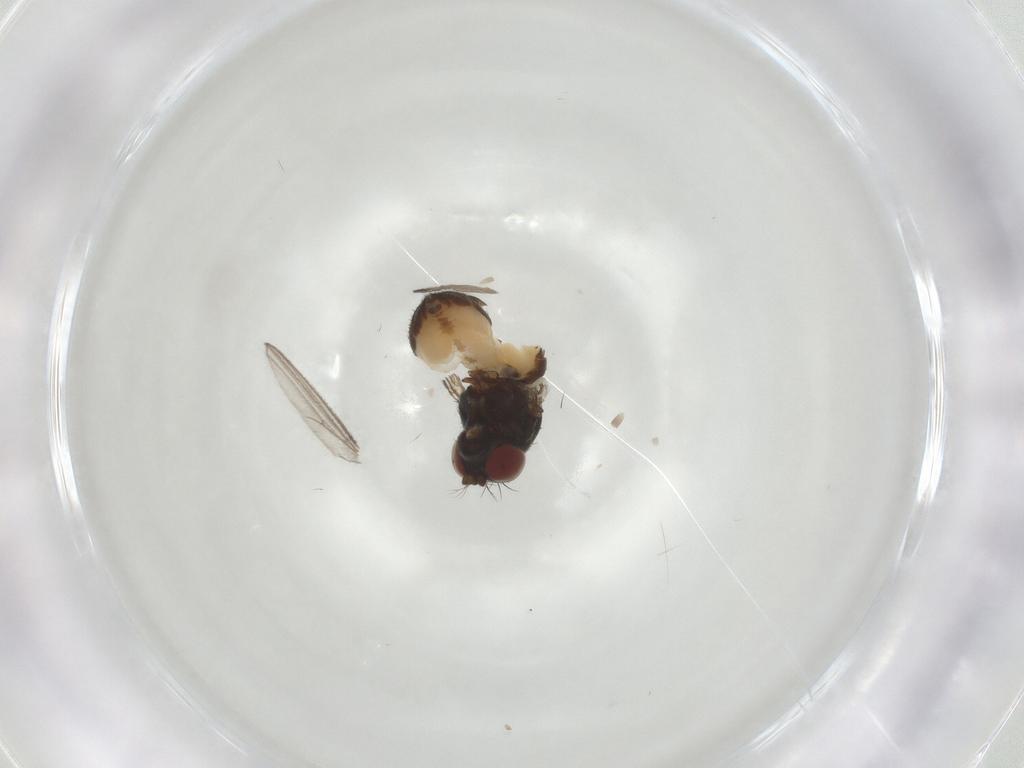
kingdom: Animalia
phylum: Arthropoda
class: Insecta
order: Diptera
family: Ephydridae
